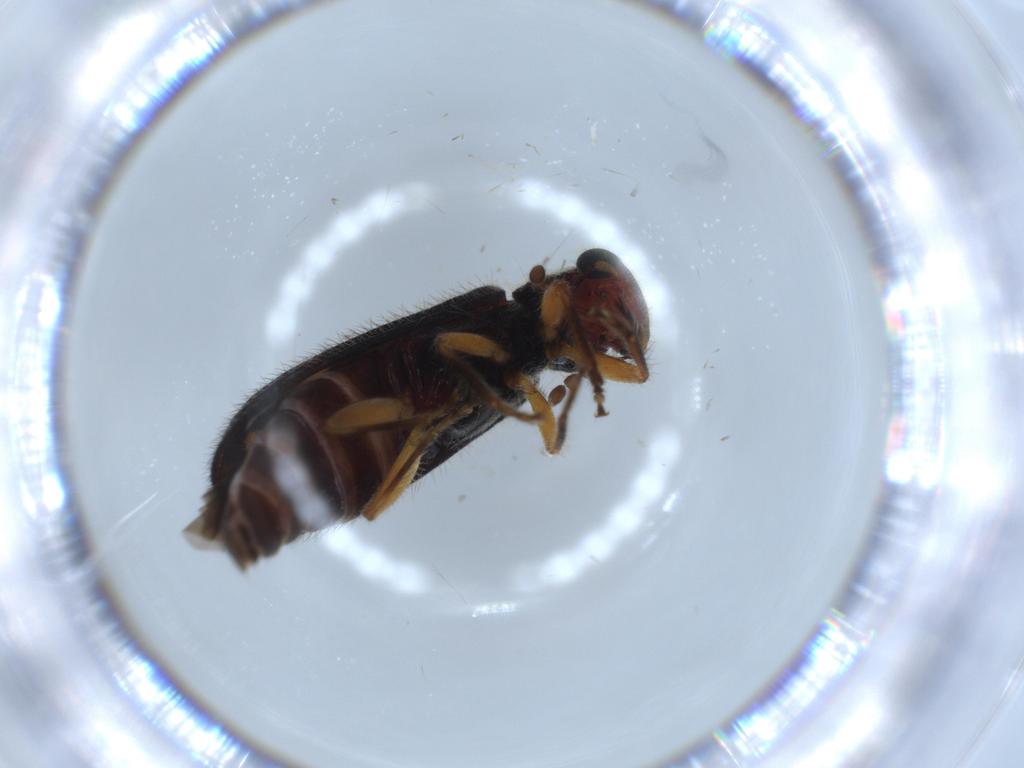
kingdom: Animalia
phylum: Arthropoda
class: Insecta
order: Coleoptera
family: Cleridae
